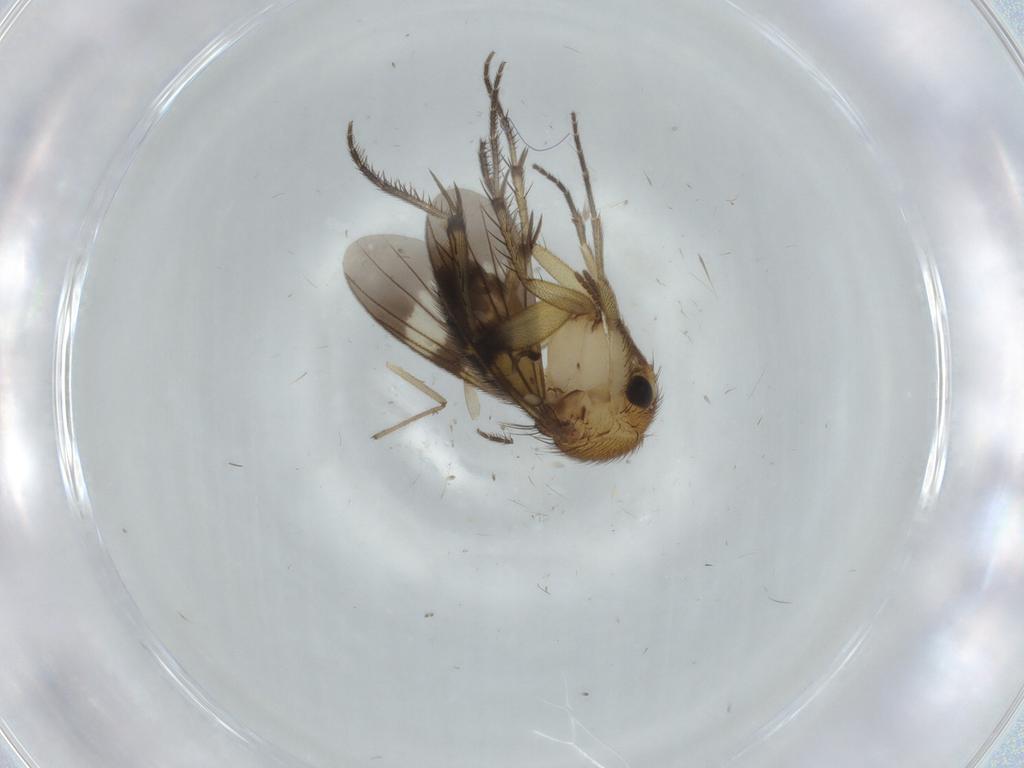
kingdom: Animalia
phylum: Arthropoda
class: Insecta
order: Diptera
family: Phoridae
